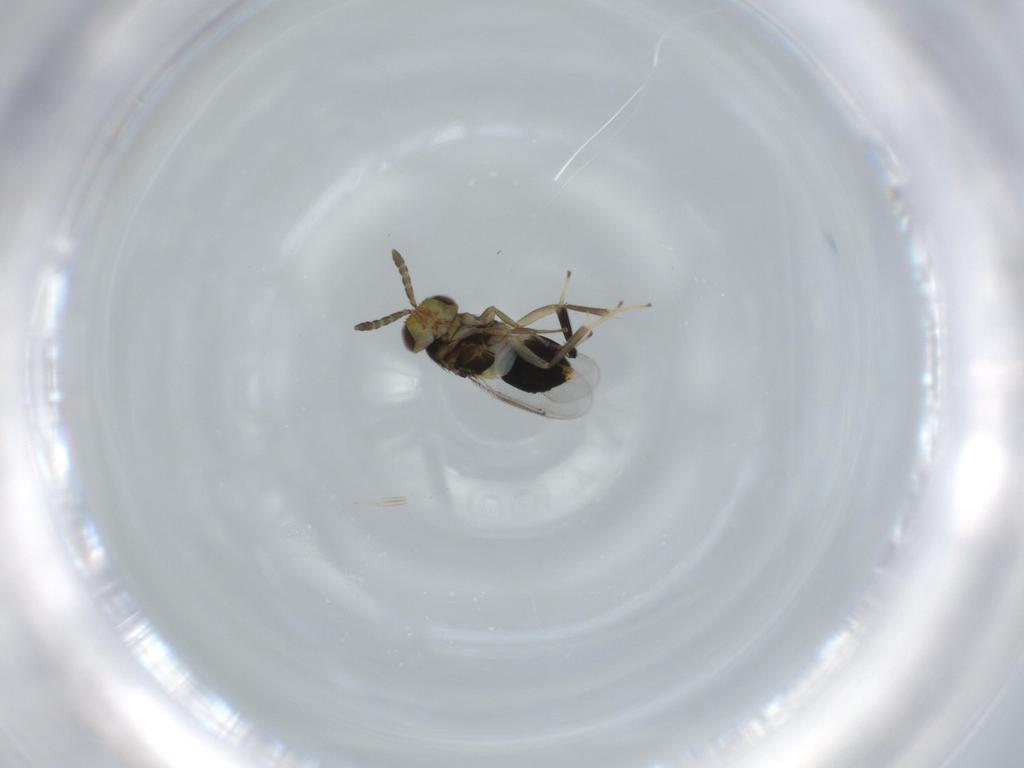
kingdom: Animalia
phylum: Arthropoda
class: Insecta
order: Hymenoptera
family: Aphelinidae
